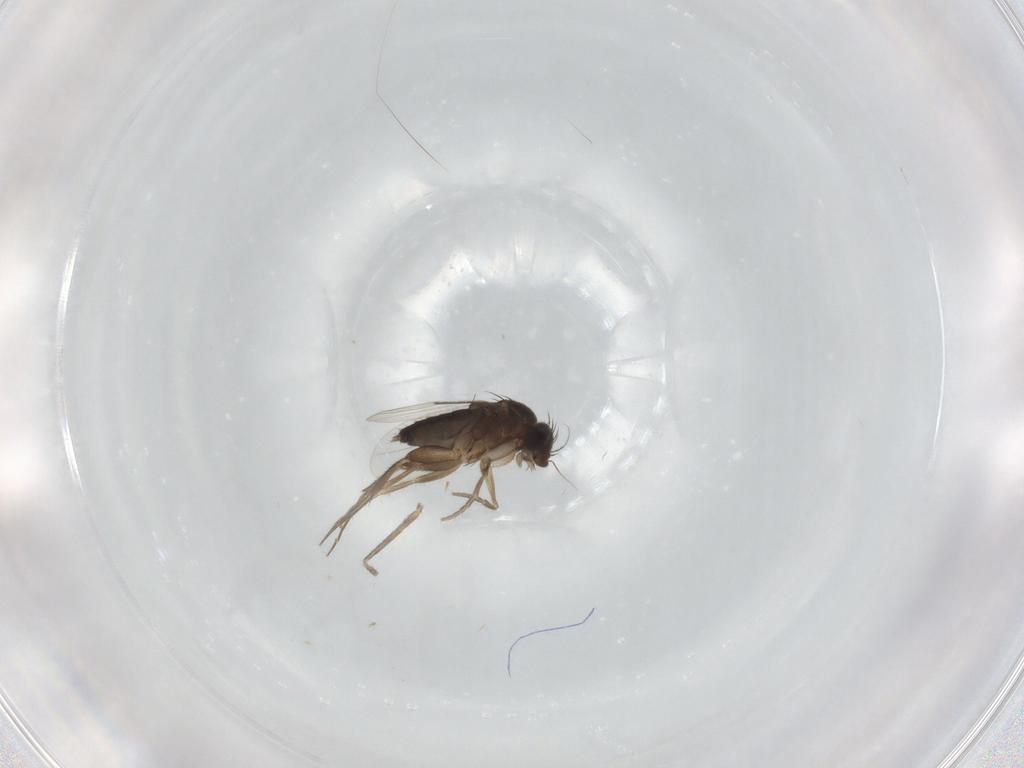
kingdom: Animalia
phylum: Arthropoda
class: Insecta
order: Diptera
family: Phoridae
